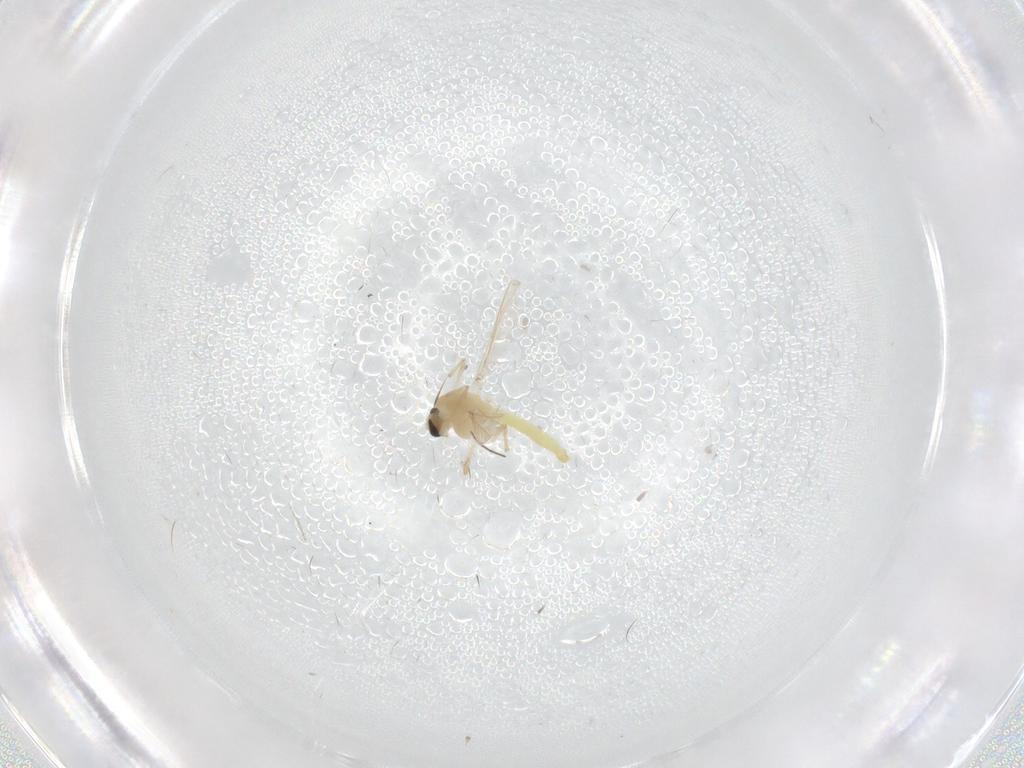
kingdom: Animalia
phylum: Arthropoda
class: Insecta
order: Diptera
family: Chironomidae
